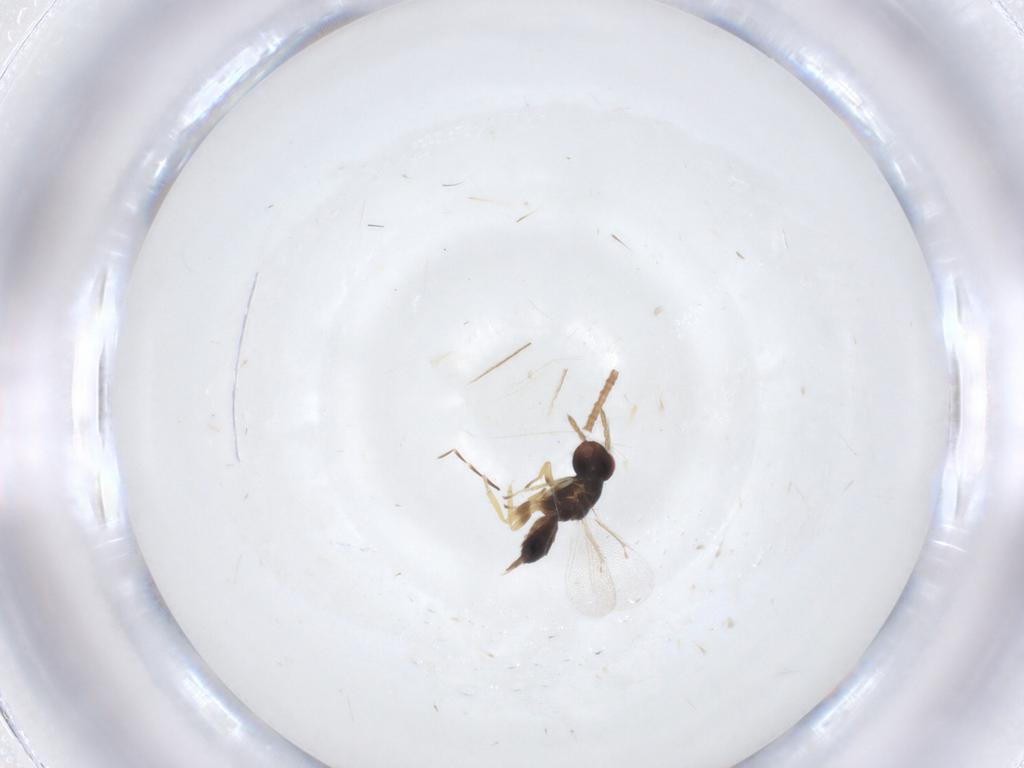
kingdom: Animalia
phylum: Arthropoda
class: Insecta
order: Hymenoptera
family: Eulophidae
